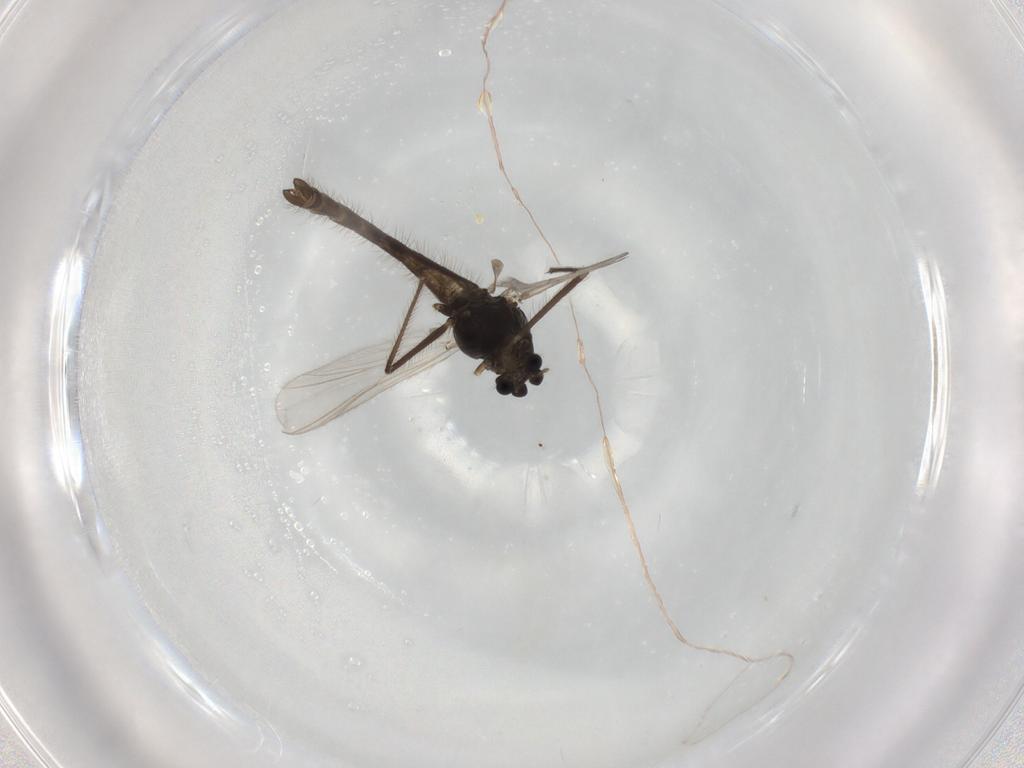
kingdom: Animalia
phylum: Arthropoda
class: Insecta
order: Diptera
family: Chironomidae
